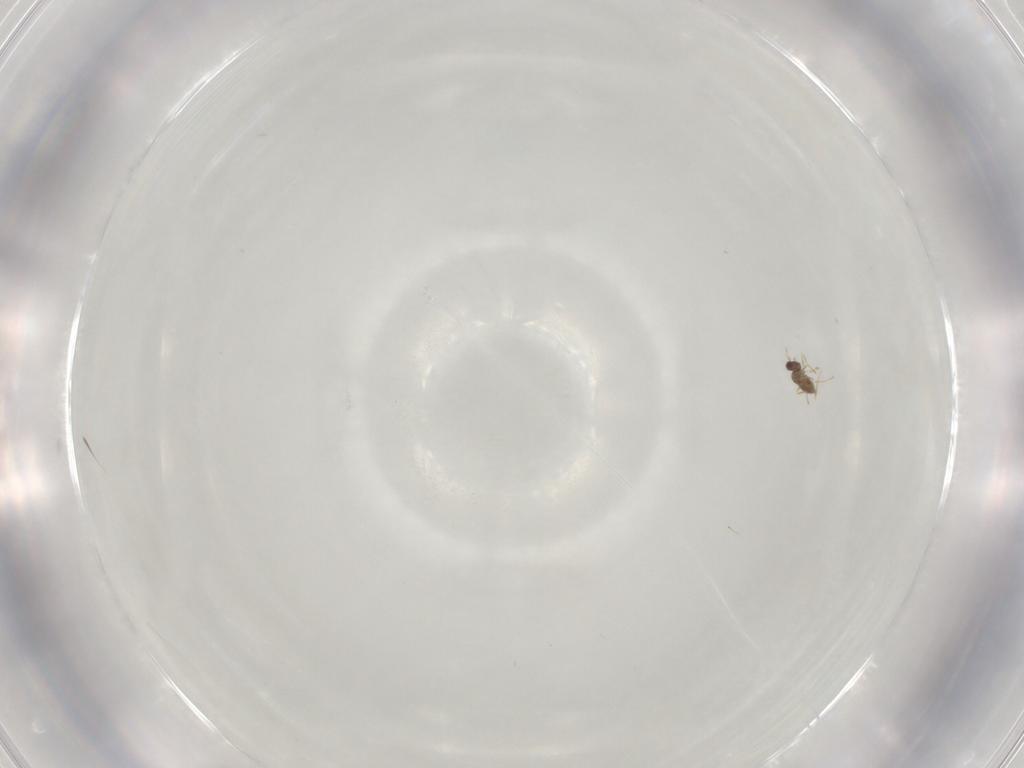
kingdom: Animalia
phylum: Arthropoda
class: Insecta
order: Hymenoptera
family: Mymaridae
